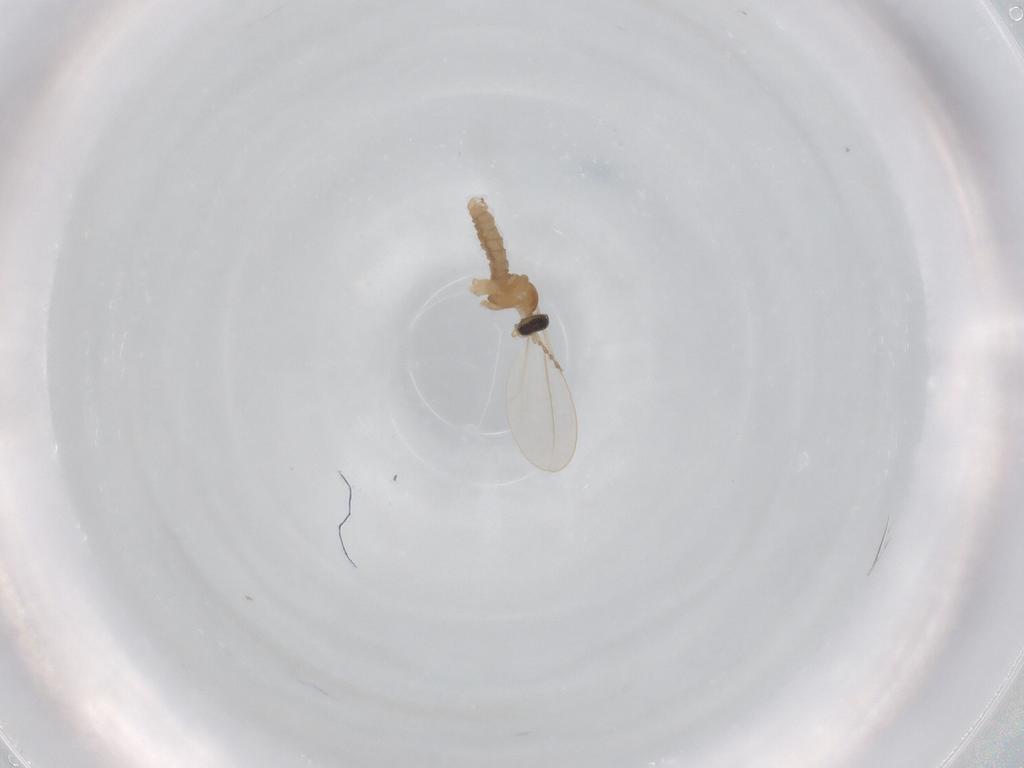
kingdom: Animalia
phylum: Arthropoda
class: Insecta
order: Diptera
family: Cecidomyiidae
